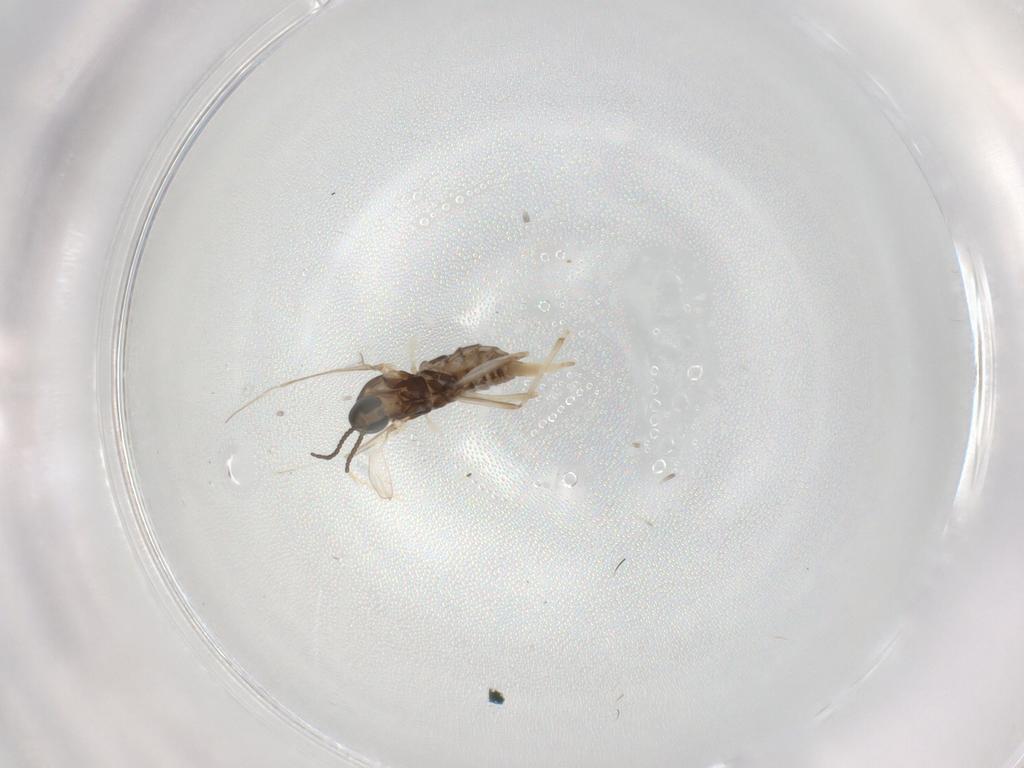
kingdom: Animalia
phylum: Arthropoda
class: Insecta
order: Diptera
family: Cecidomyiidae
